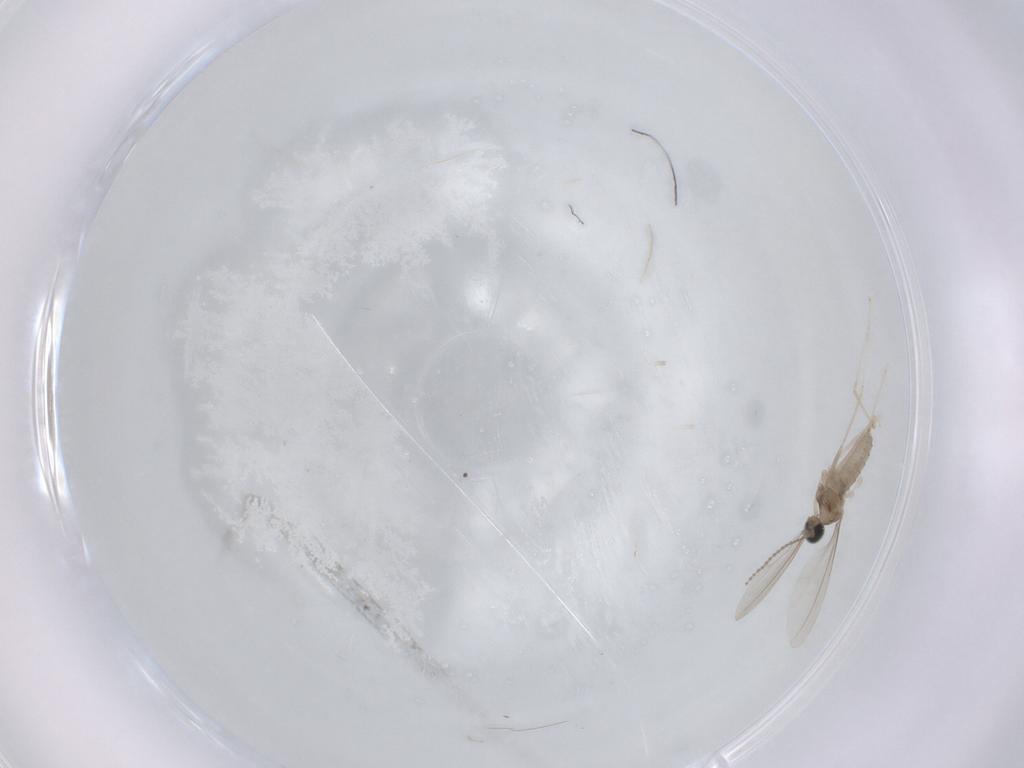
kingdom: Animalia
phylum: Arthropoda
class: Insecta
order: Diptera
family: Cecidomyiidae
